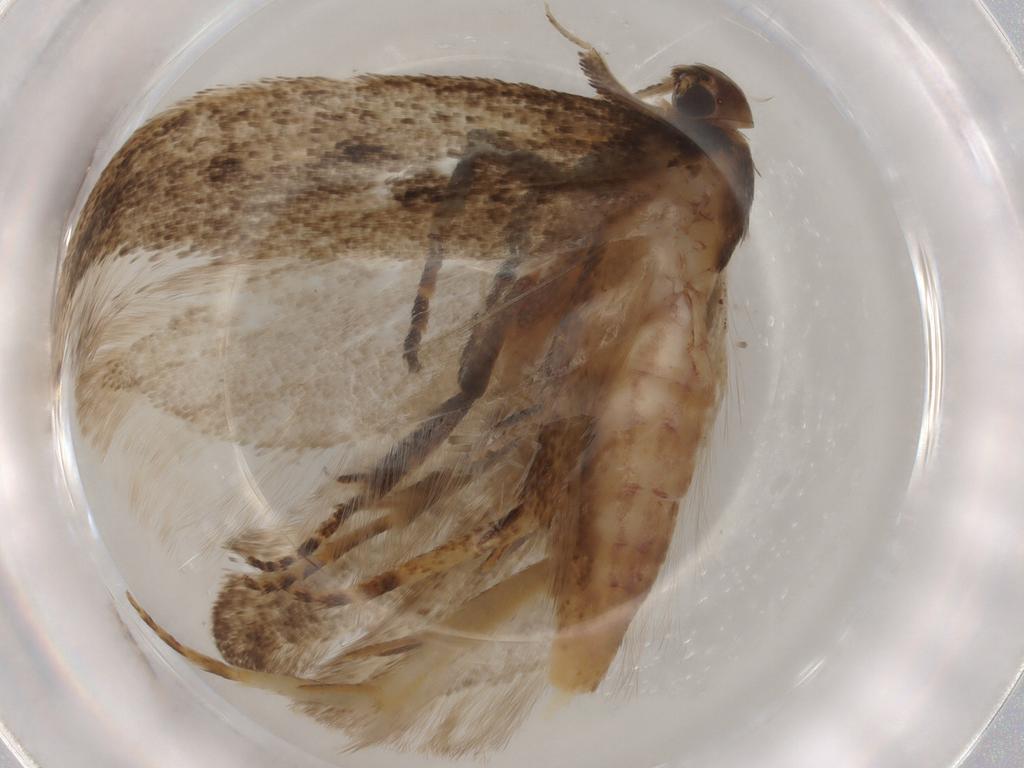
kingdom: Animalia
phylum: Arthropoda
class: Insecta
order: Lepidoptera
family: Gelechiidae
